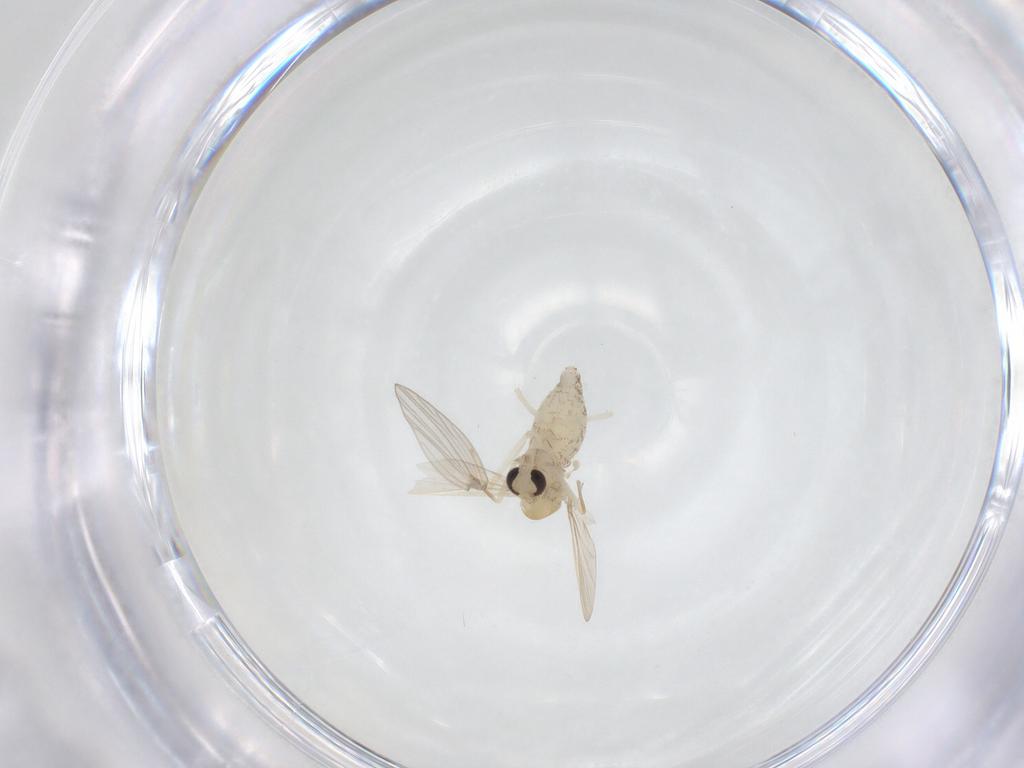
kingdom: Animalia
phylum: Arthropoda
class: Insecta
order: Diptera
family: Chironomidae
